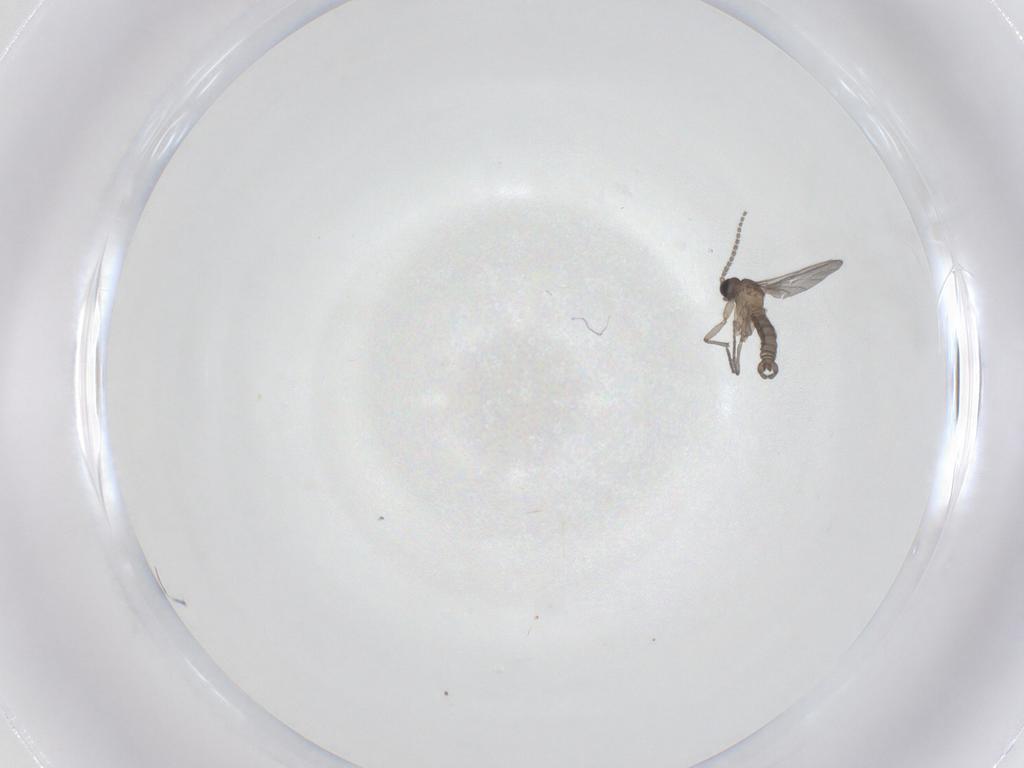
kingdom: Animalia
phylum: Arthropoda
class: Insecta
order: Diptera
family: Sciaridae
